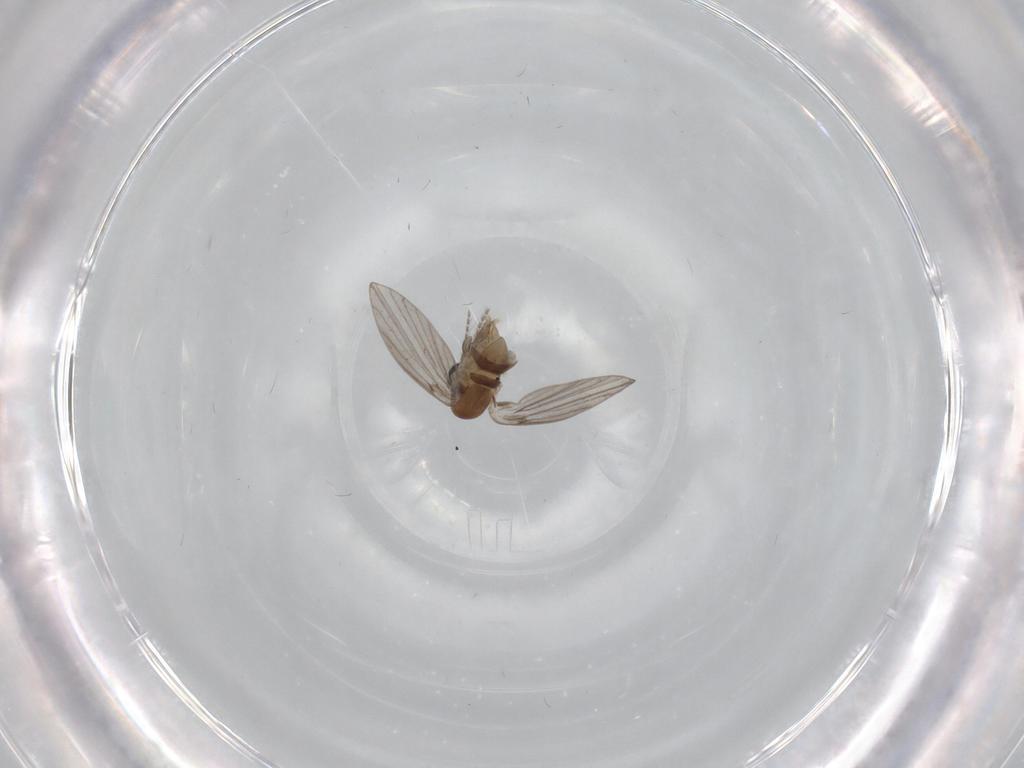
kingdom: Animalia
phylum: Arthropoda
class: Insecta
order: Diptera
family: Psychodidae
